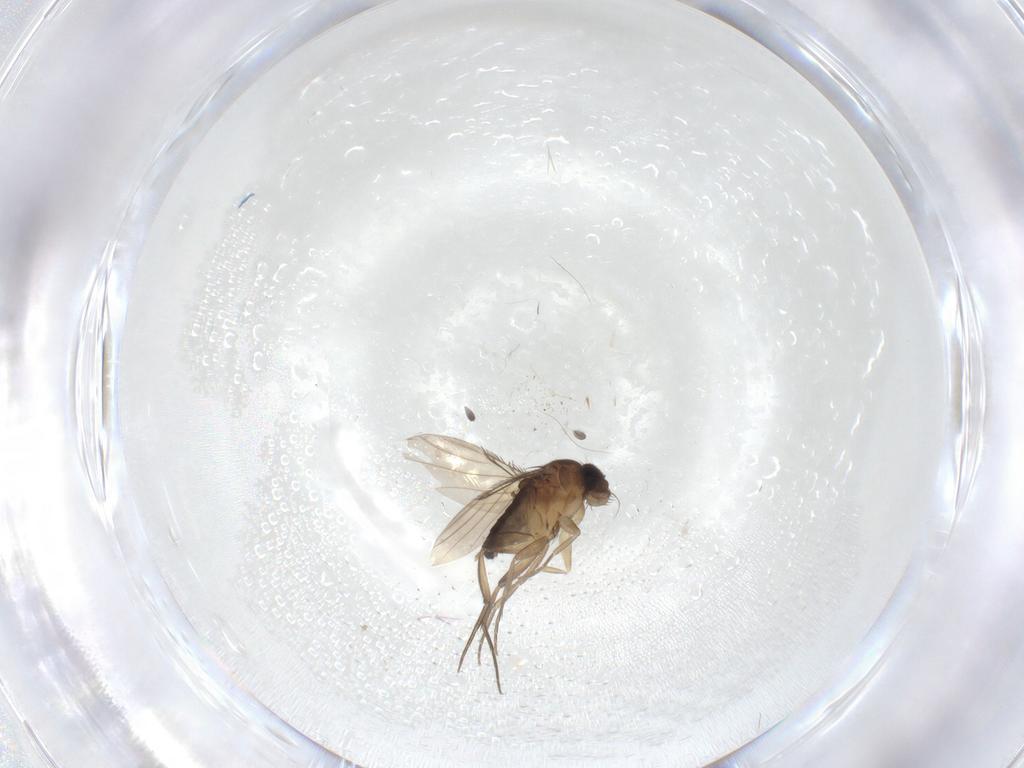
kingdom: Animalia
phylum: Arthropoda
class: Insecta
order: Diptera
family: Phoridae
